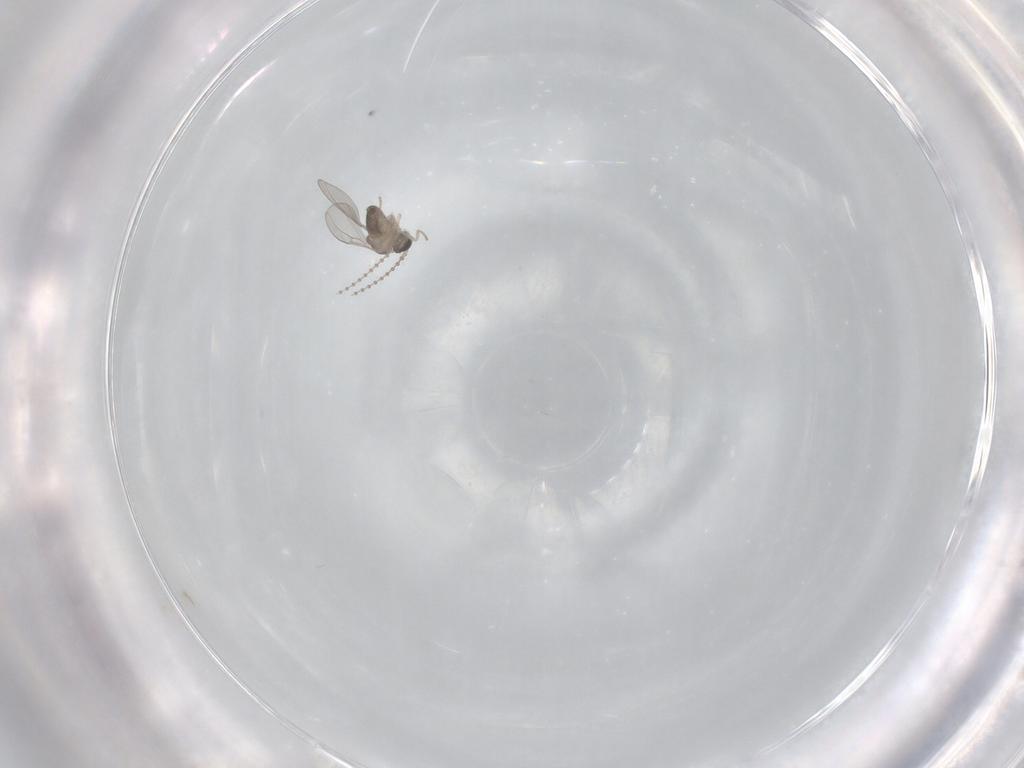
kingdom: Animalia
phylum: Arthropoda
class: Insecta
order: Diptera
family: Cecidomyiidae
